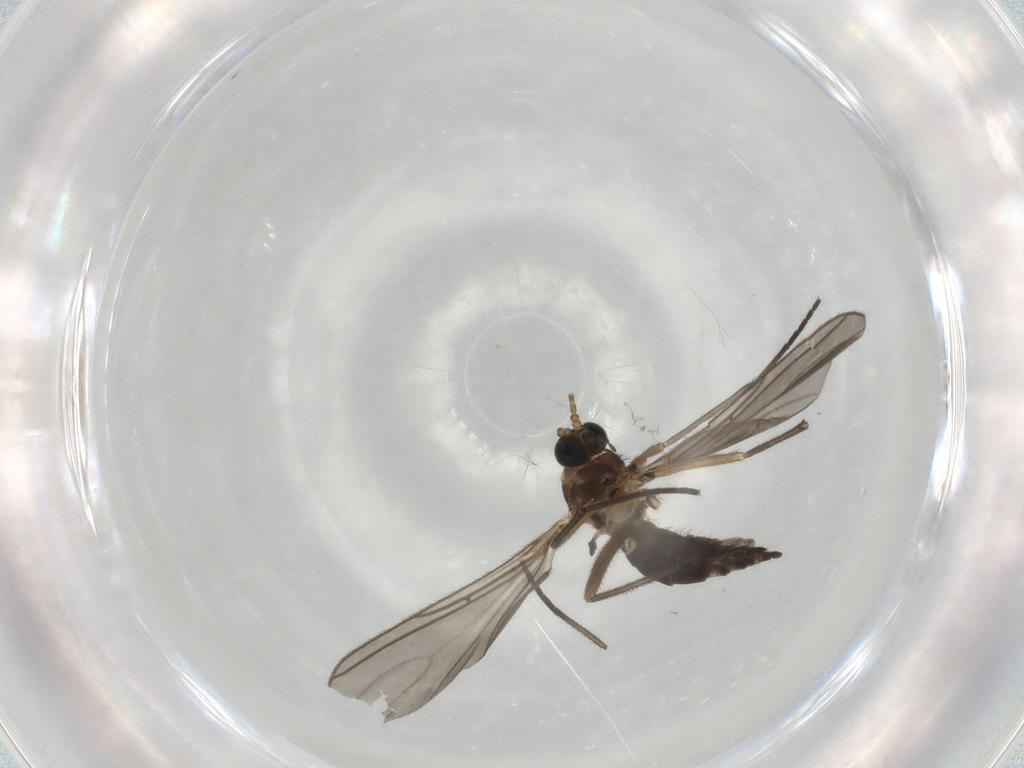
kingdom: Animalia
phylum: Arthropoda
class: Insecta
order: Diptera
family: Sciaridae
